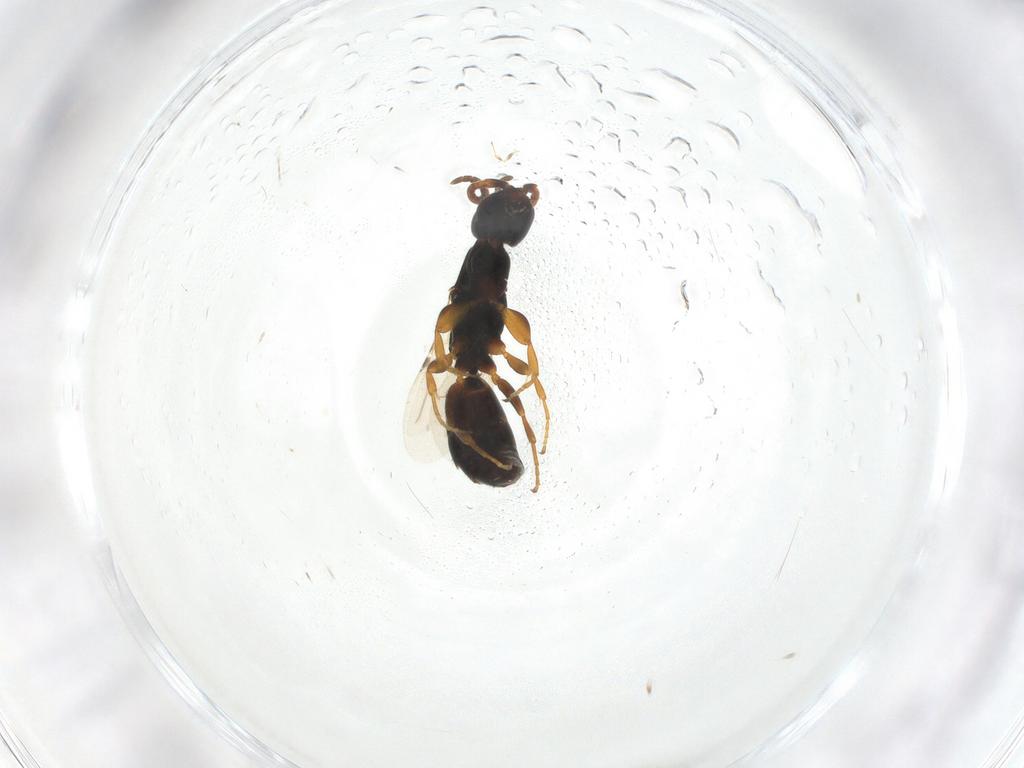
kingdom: Animalia
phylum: Arthropoda
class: Insecta
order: Hymenoptera
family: Bethylidae
